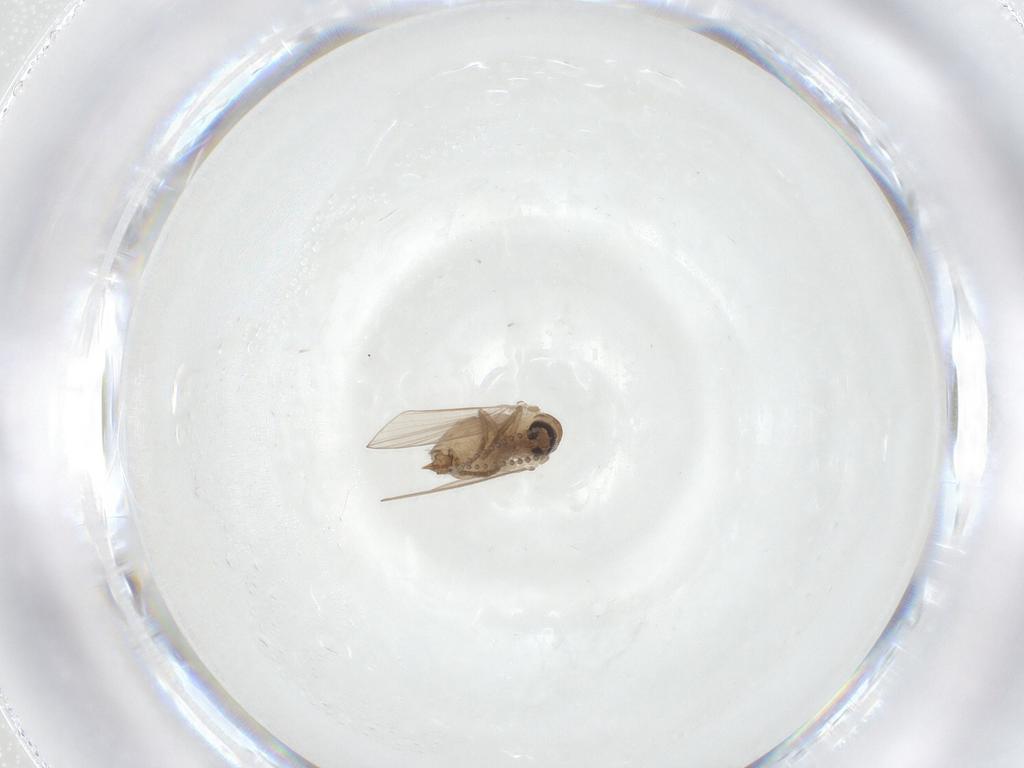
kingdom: Animalia
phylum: Arthropoda
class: Insecta
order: Diptera
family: Psychodidae
